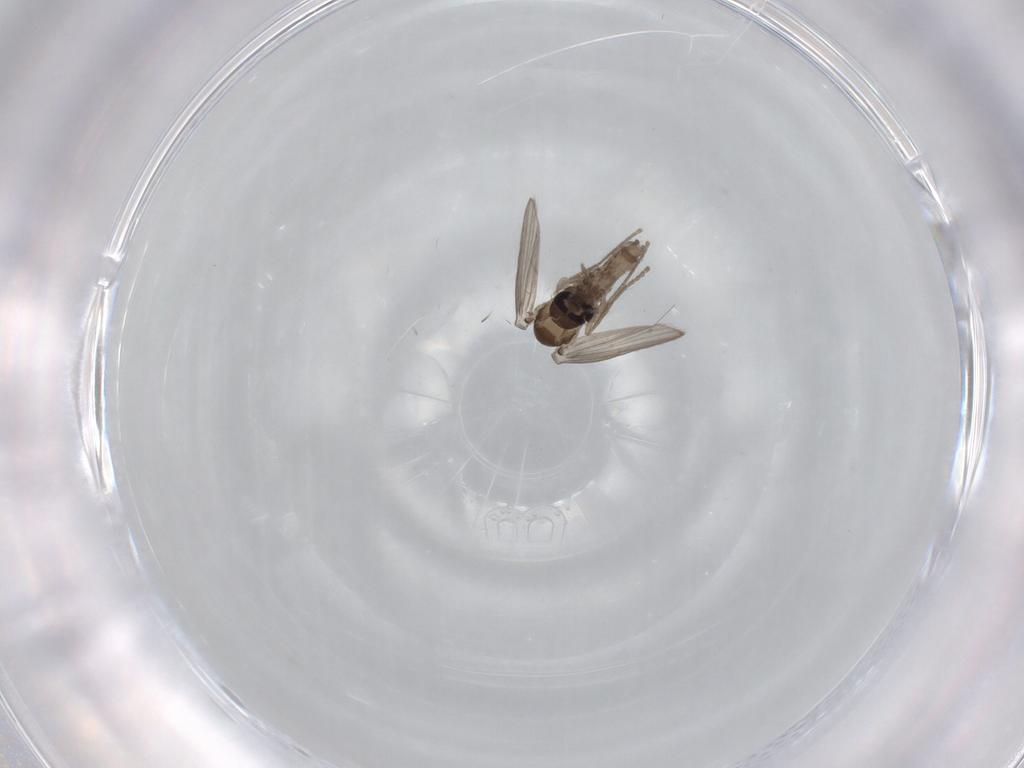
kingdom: Animalia
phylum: Arthropoda
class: Insecta
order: Diptera
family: Psychodidae
